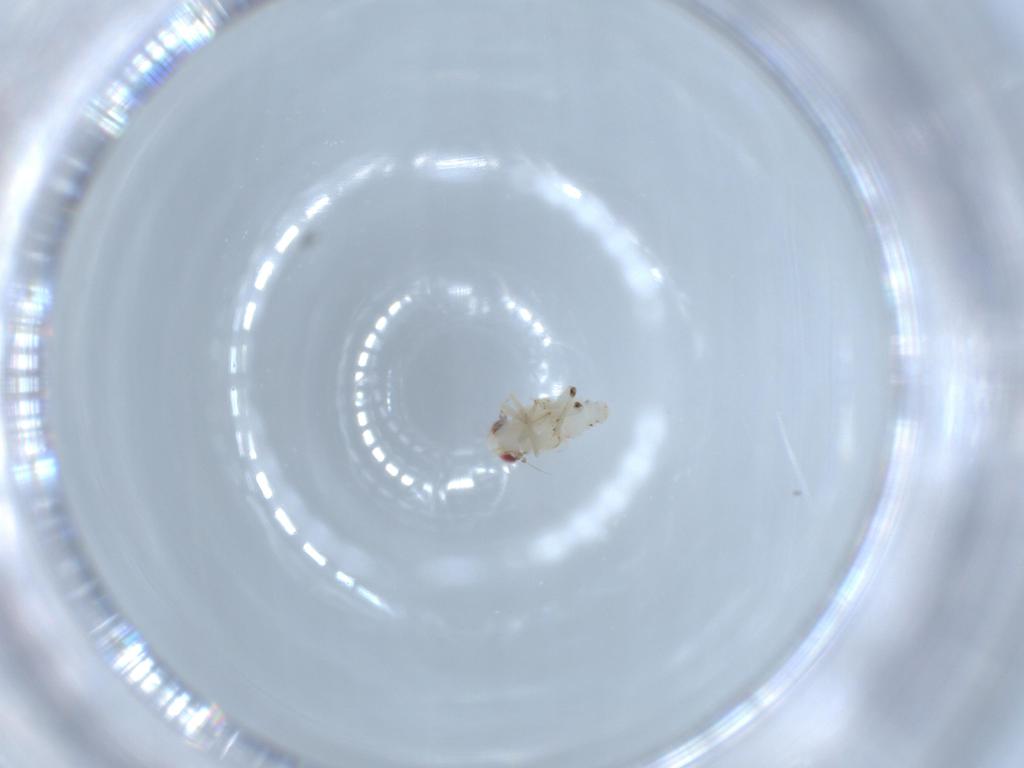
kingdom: Animalia
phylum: Arthropoda
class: Insecta
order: Hemiptera
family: Nogodinidae
